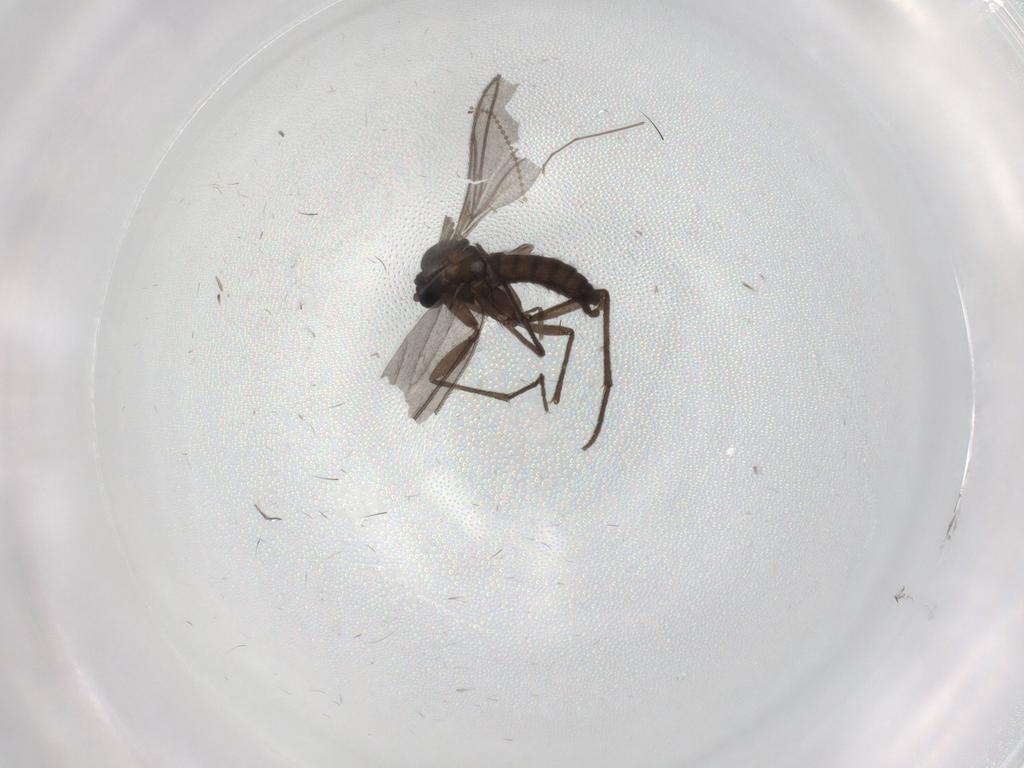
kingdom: Animalia
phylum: Arthropoda
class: Insecta
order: Diptera
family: Sciaridae
